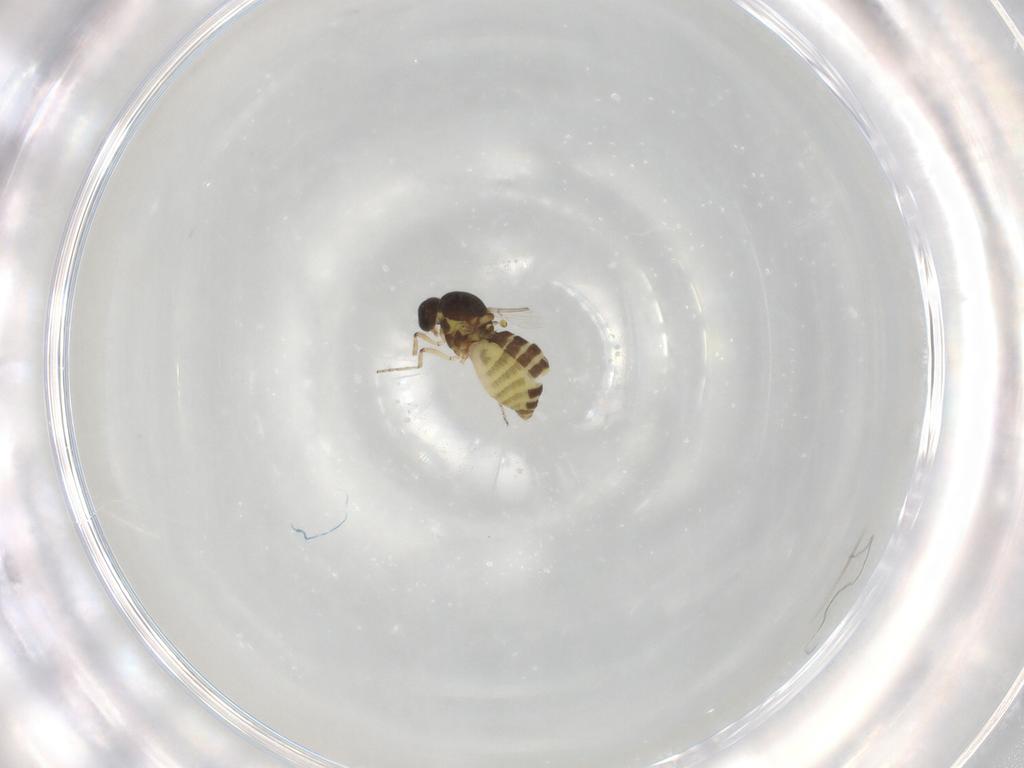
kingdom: Animalia
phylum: Arthropoda
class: Insecta
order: Diptera
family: Ceratopogonidae
